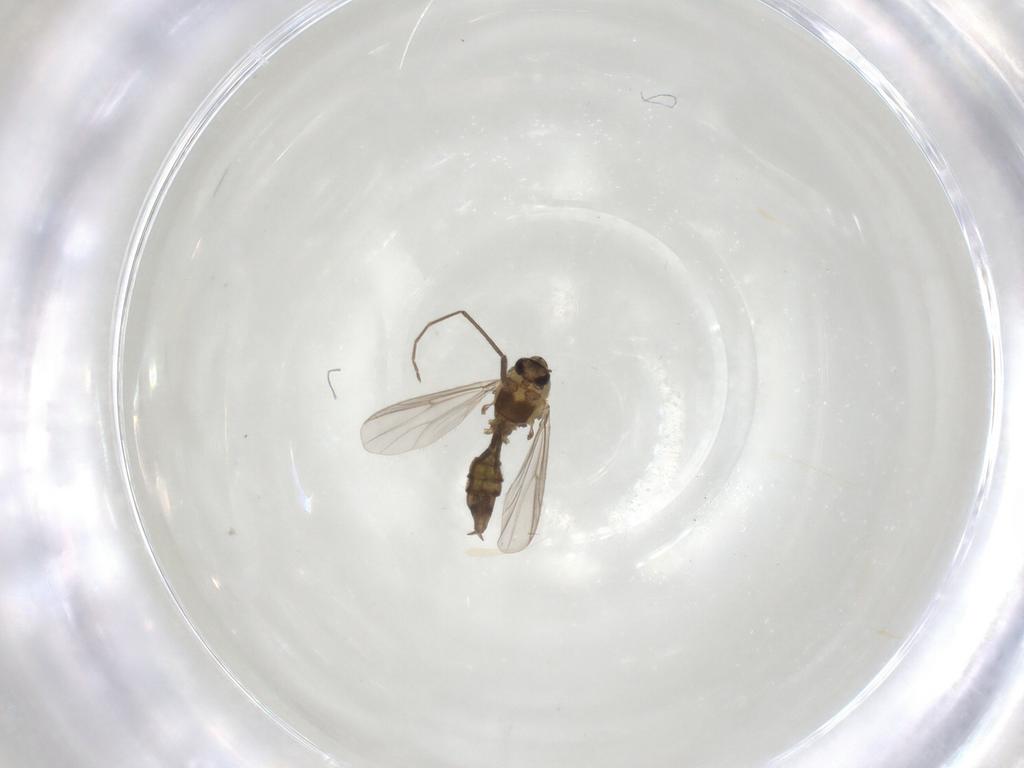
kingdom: Animalia
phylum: Arthropoda
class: Insecta
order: Diptera
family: Chironomidae
